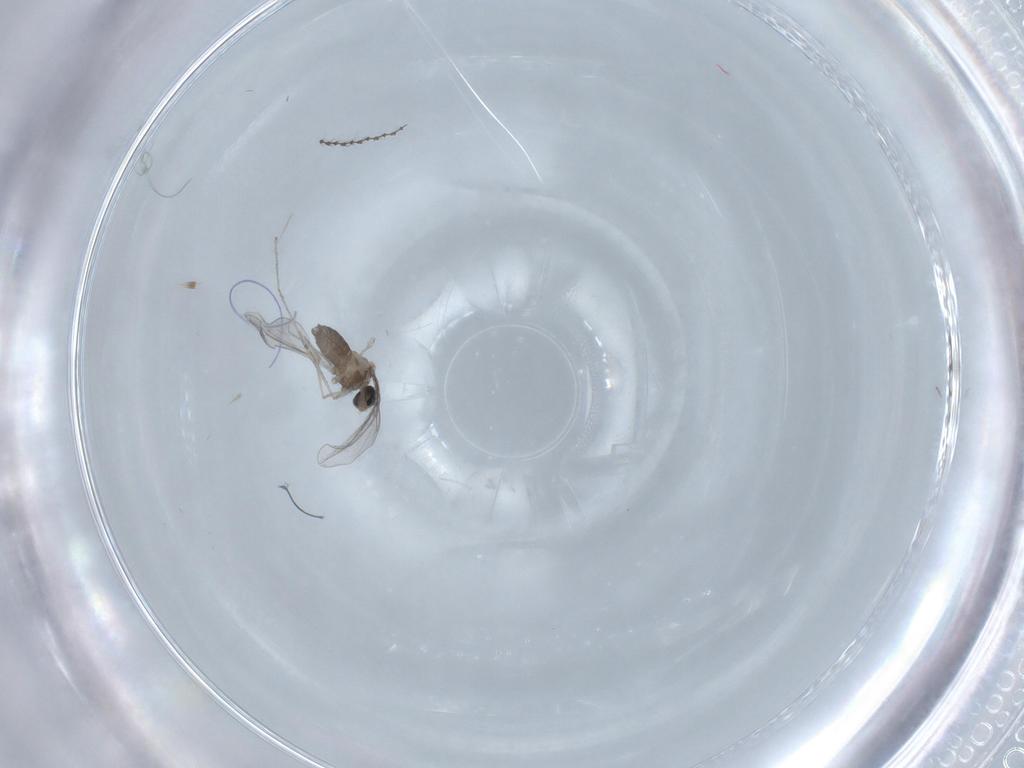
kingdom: Animalia
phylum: Arthropoda
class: Insecta
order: Diptera
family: Cecidomyiidae
